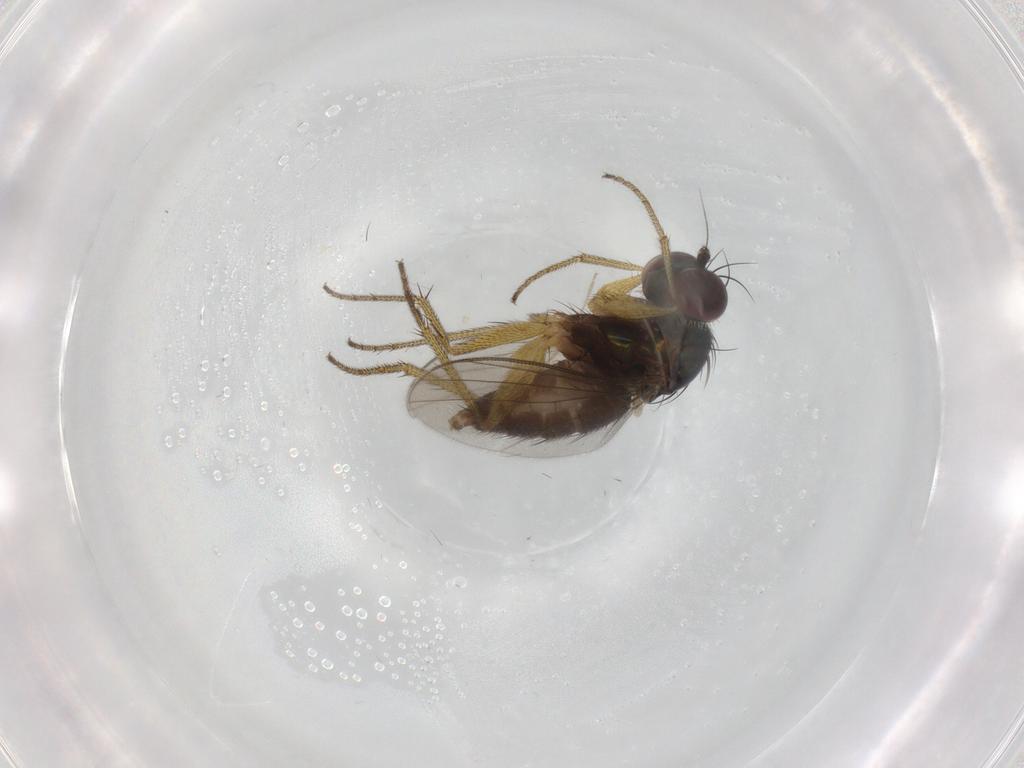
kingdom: Animalia
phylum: Arthropoda
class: Insecta
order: Diptera
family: Chironomidae
